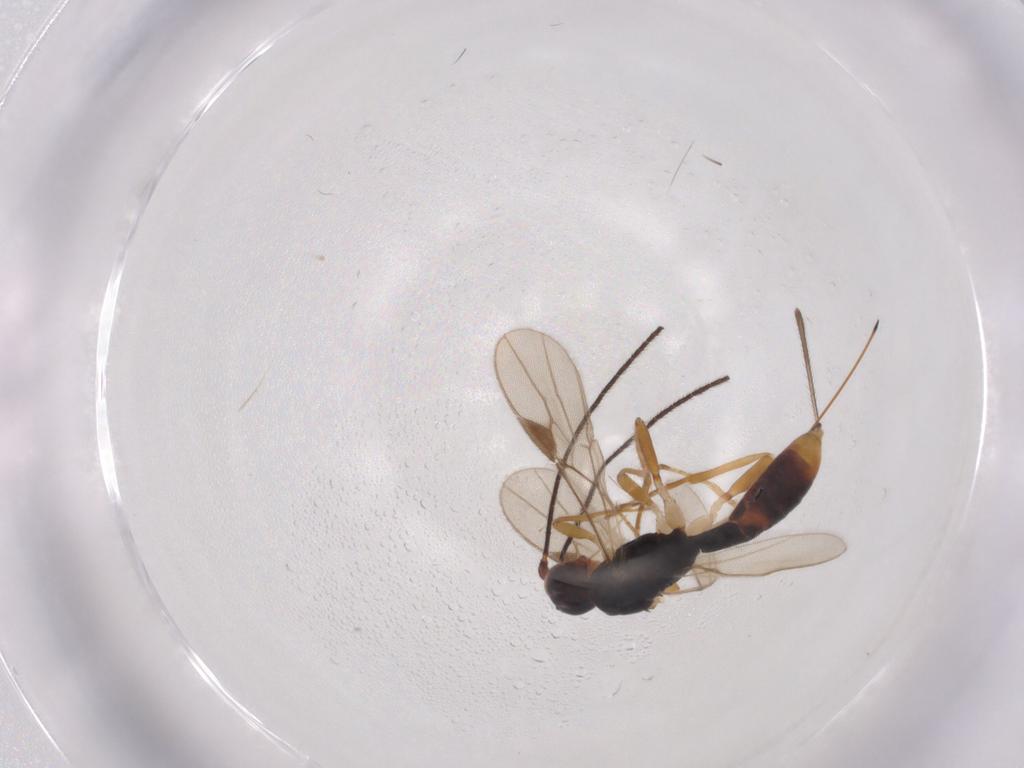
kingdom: Animalia
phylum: Arthropoda
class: Insecta
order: Hymenoptera
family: Braconidae
